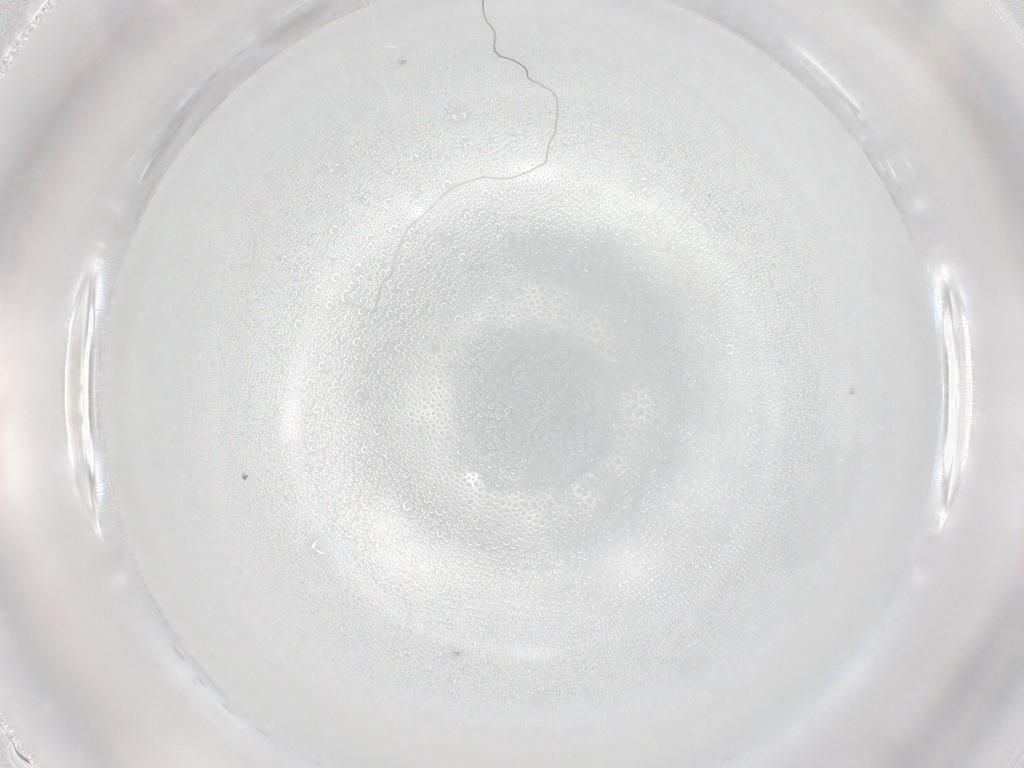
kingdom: Animalia
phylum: Arthropoda
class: Insecta
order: Diptera
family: Chironomidae
